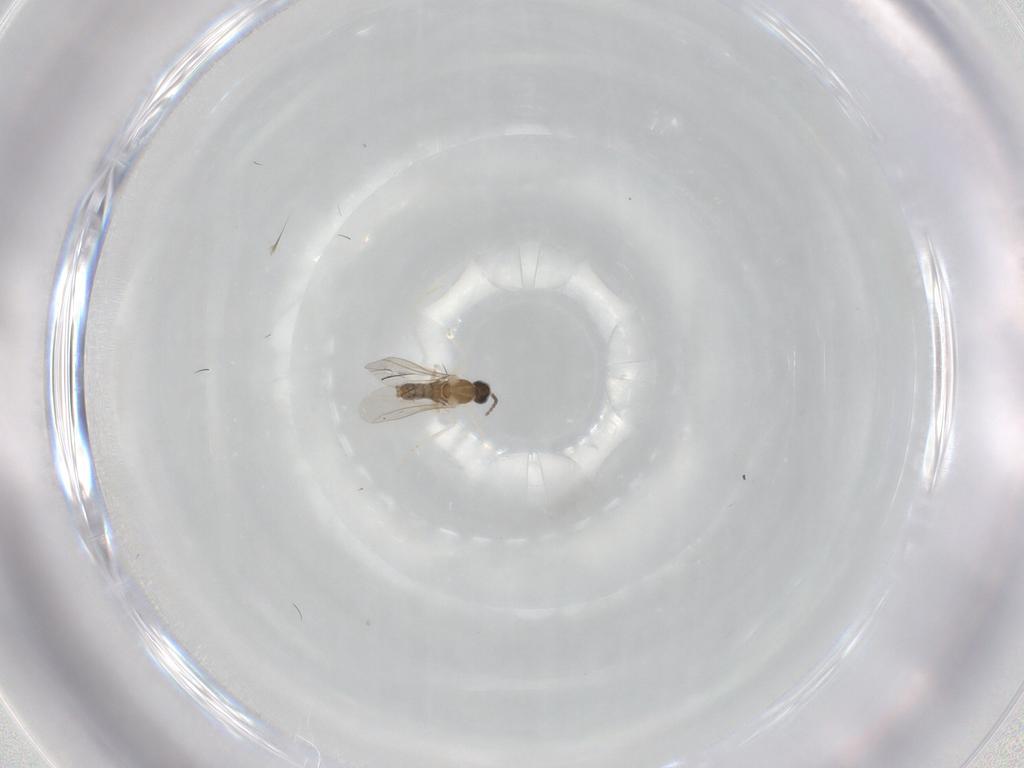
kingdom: Animalia
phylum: Arthropoda
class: Insecta
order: Diptera
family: Cecidomyiidae
